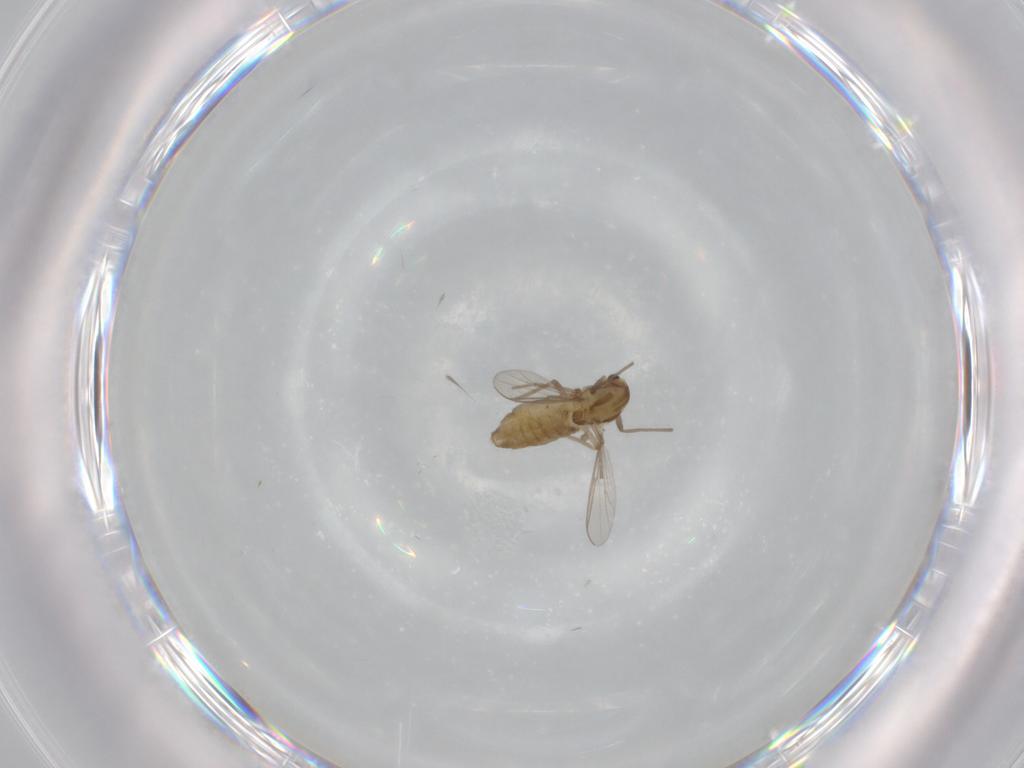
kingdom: Animalia
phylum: Arthropoda
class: Insecta
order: Diptera
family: Chironomidae
